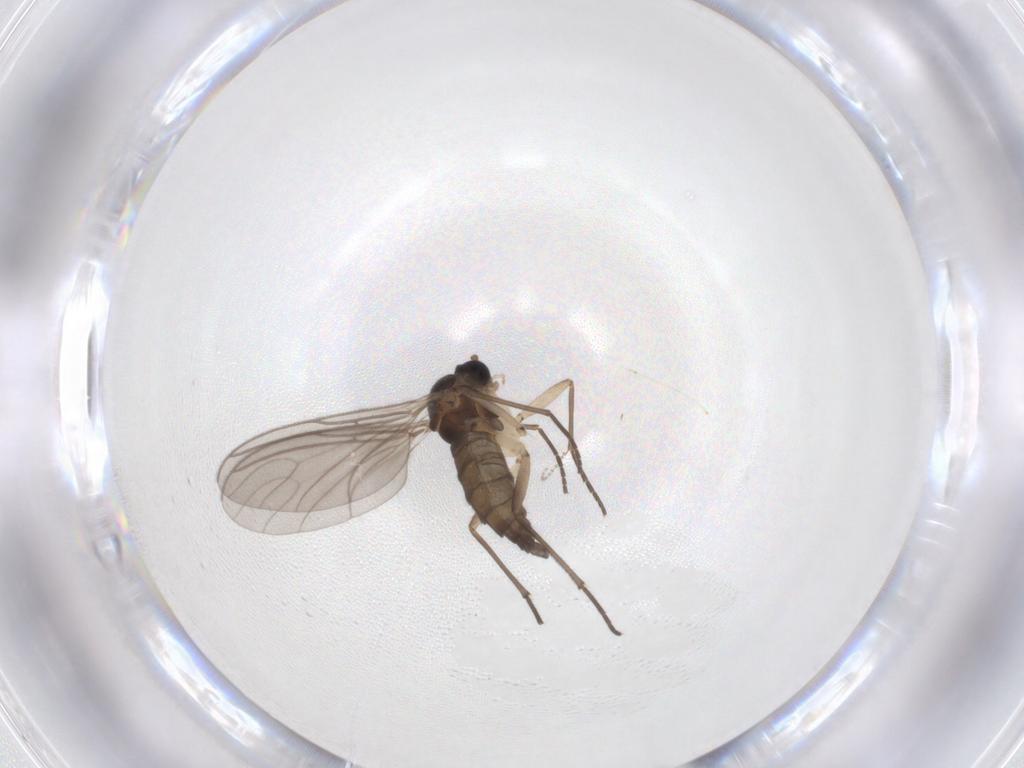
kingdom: Animalia
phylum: Arthropoda
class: Insecta
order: Diptera
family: Sciaridae
